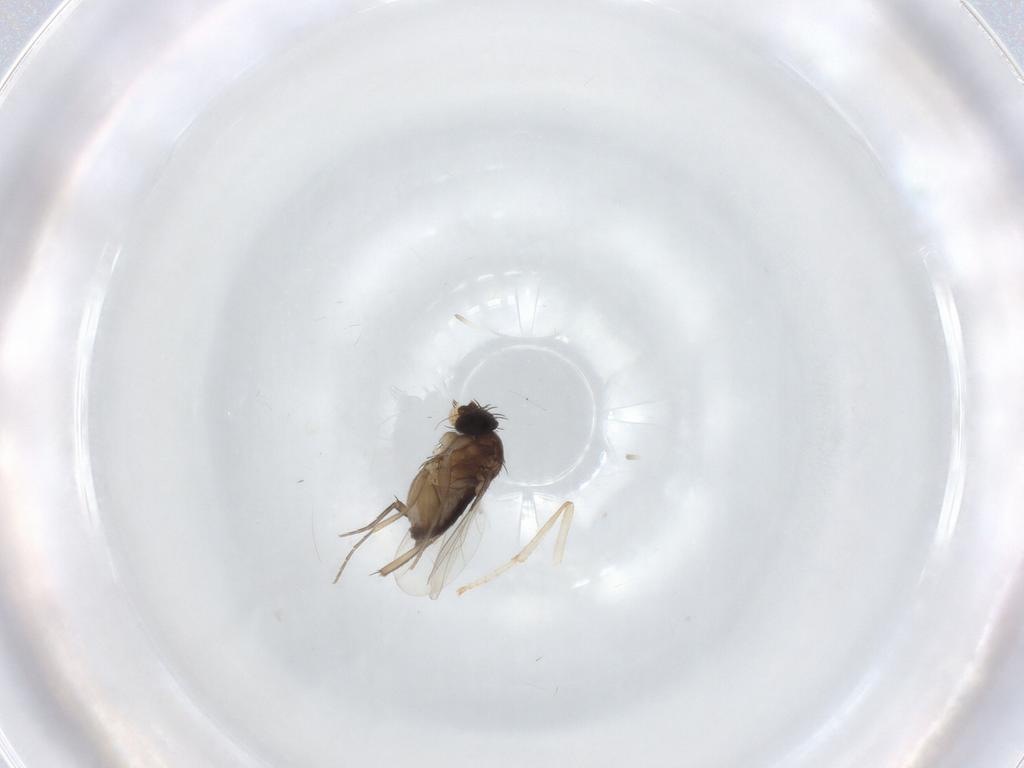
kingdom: Animalia
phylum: Arthropoda
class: Insecta
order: Diptera
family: Phoridae
